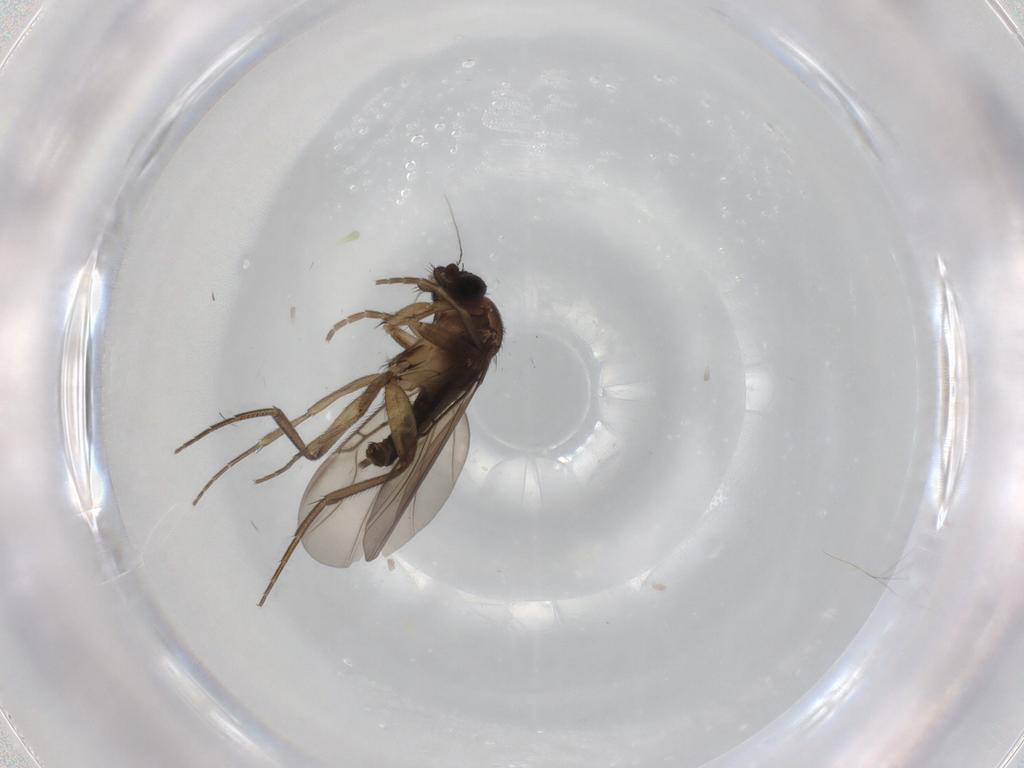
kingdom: Animalia
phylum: Arthropoda
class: Insecta
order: Diptera
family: Phoridae
